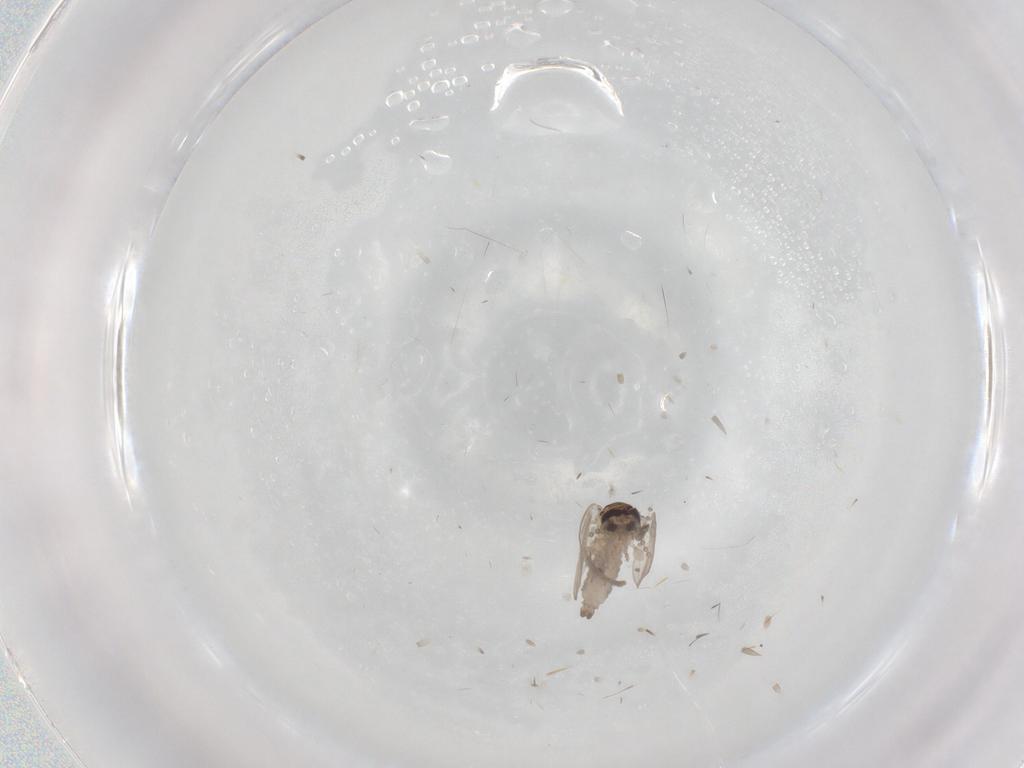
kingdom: Animalia
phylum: Arthropoda
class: Insecta
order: Diptera
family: Psychodidae
